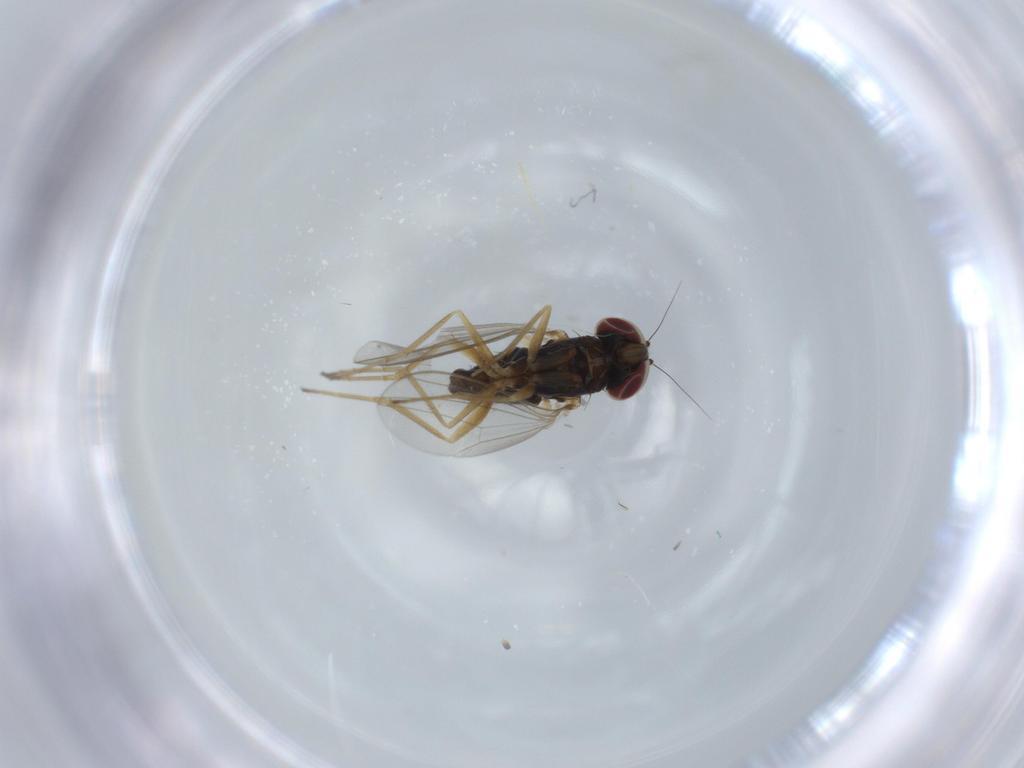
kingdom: Animalia
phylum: Arthropoda
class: Insecta
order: Diptera
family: Dolichopodidae
